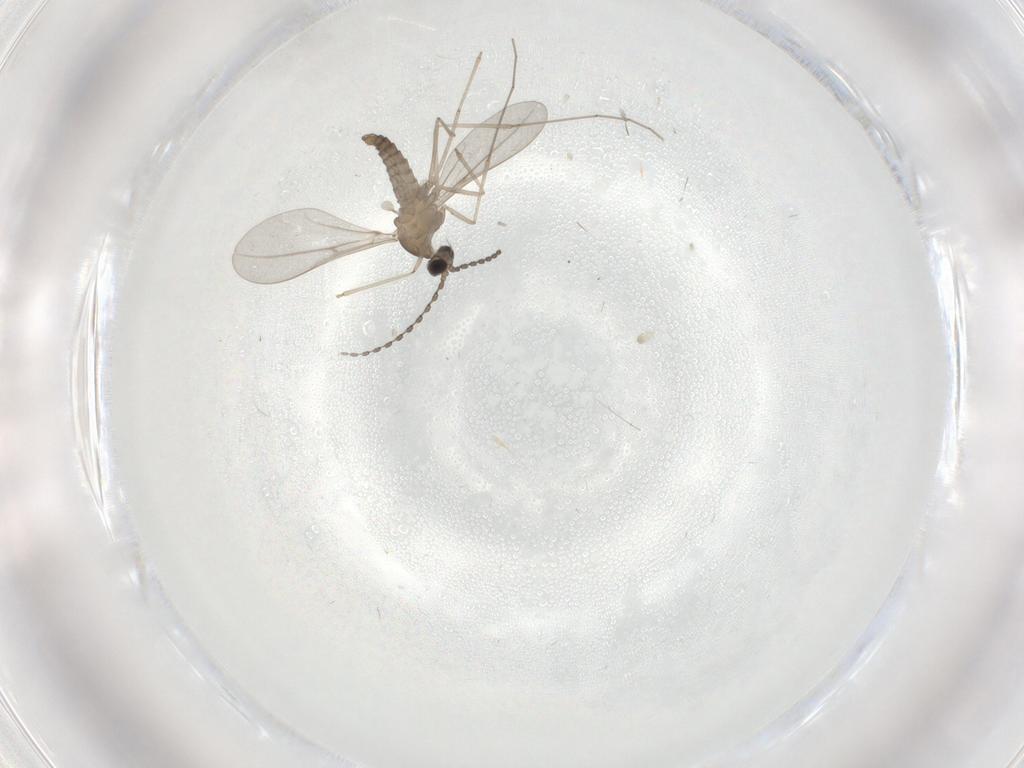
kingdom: Animalia
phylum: Arthropoda
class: Insecta
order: Diptera
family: Cecidomyiidae
